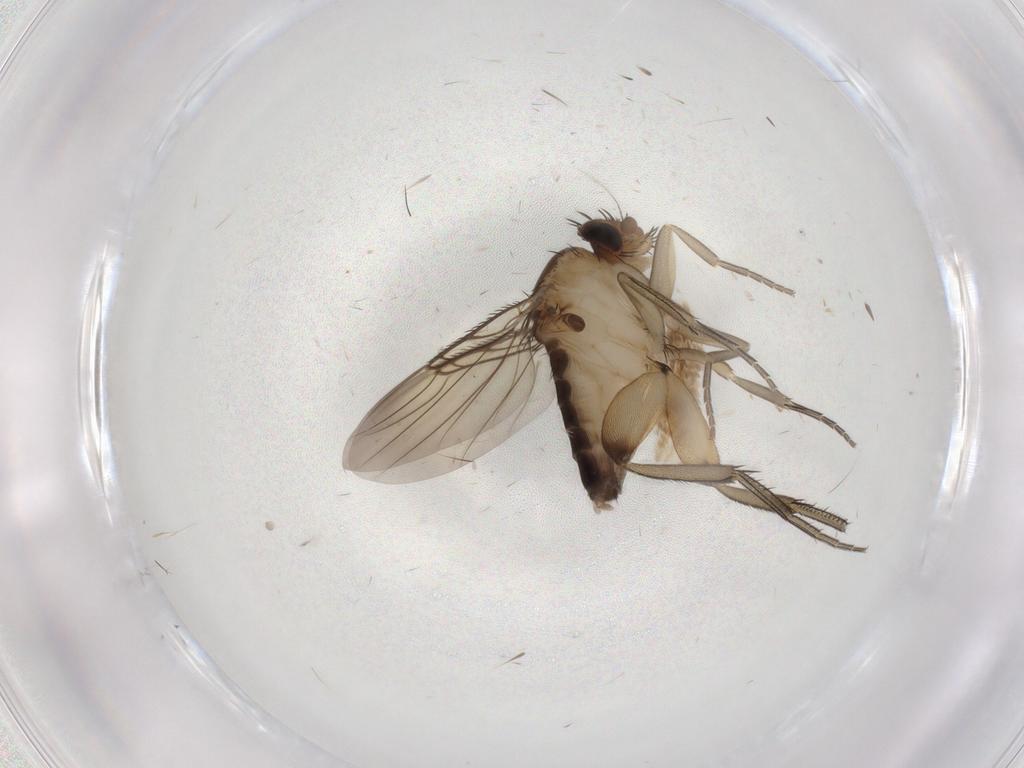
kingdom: Animalia
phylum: Arthropoda
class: Insecta
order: Diptera
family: Phoridae
